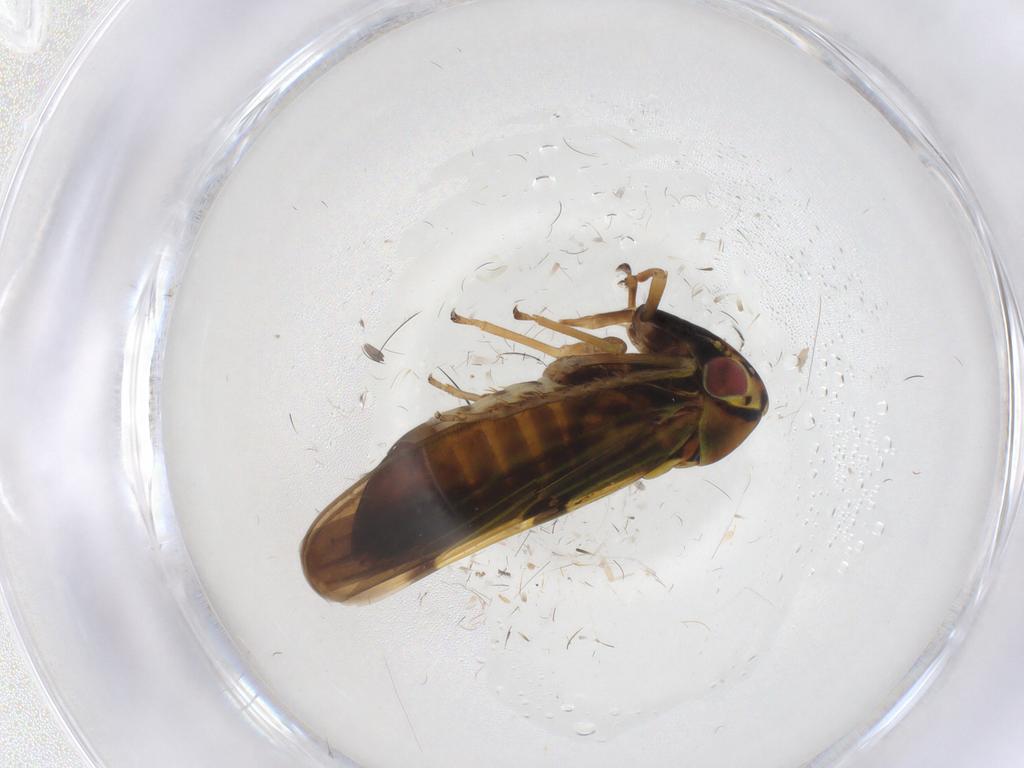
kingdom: Animalia
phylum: Arthropoda
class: Insecta
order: Hemiptera
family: Cicadellidae
